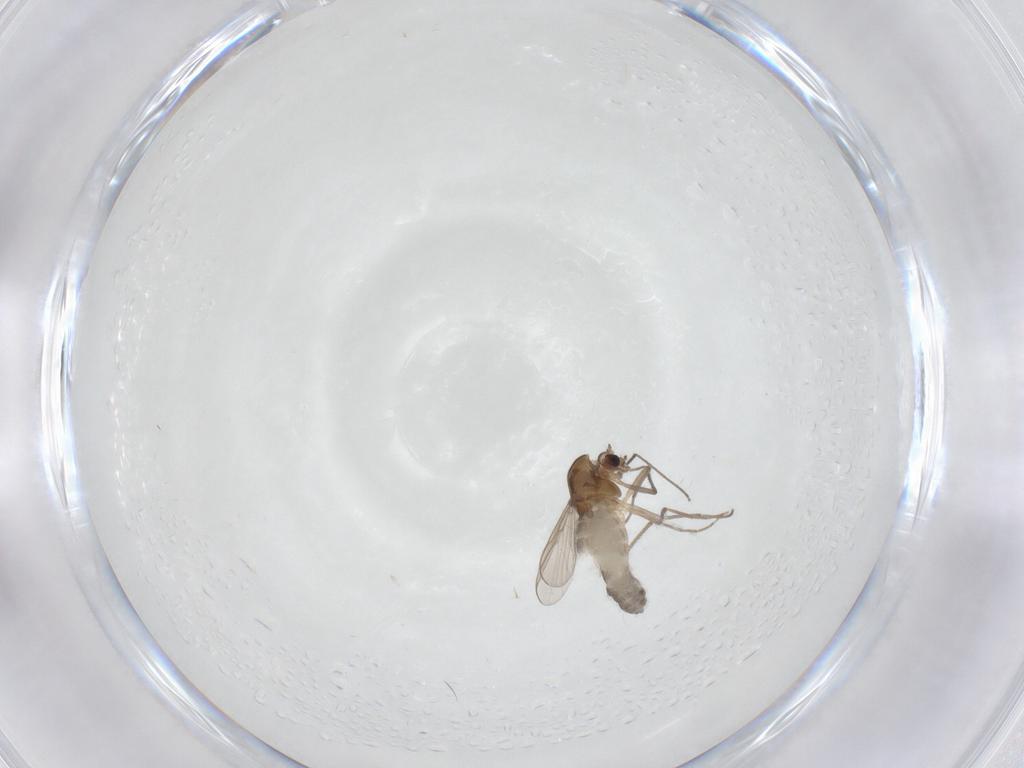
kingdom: Animalia
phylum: Arthropoda
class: Insecta
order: Diptera
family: Chironomidae
